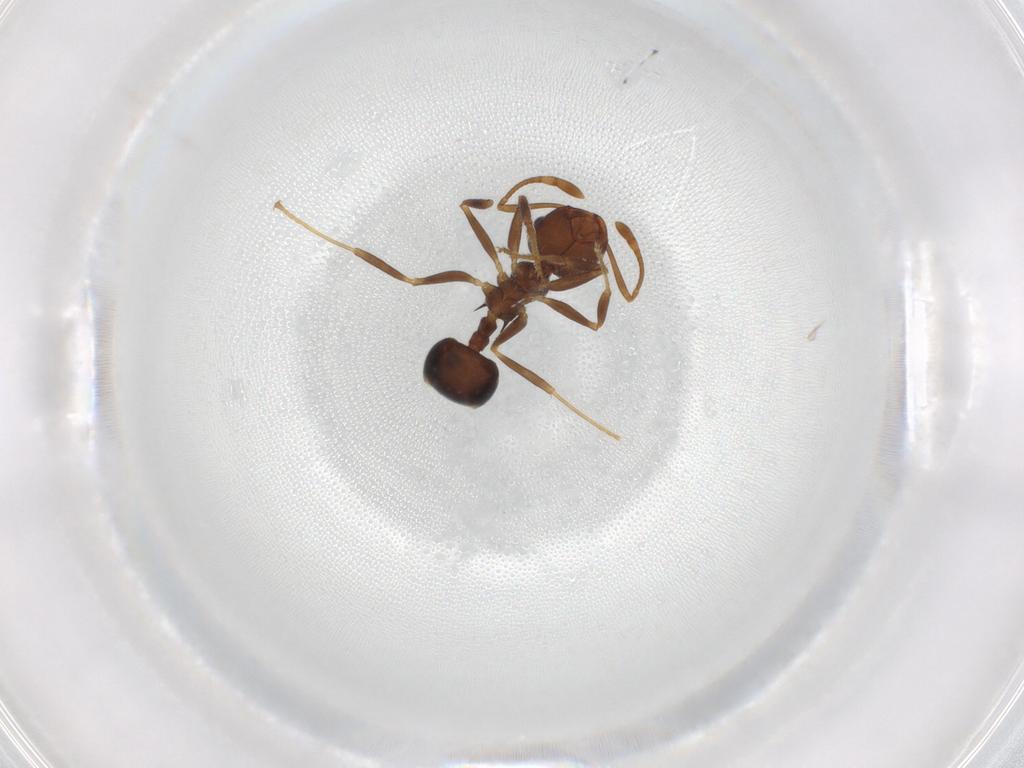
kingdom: Animalia
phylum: Arthropoda
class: Insecta
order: Hymenoptera
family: Formicidae
